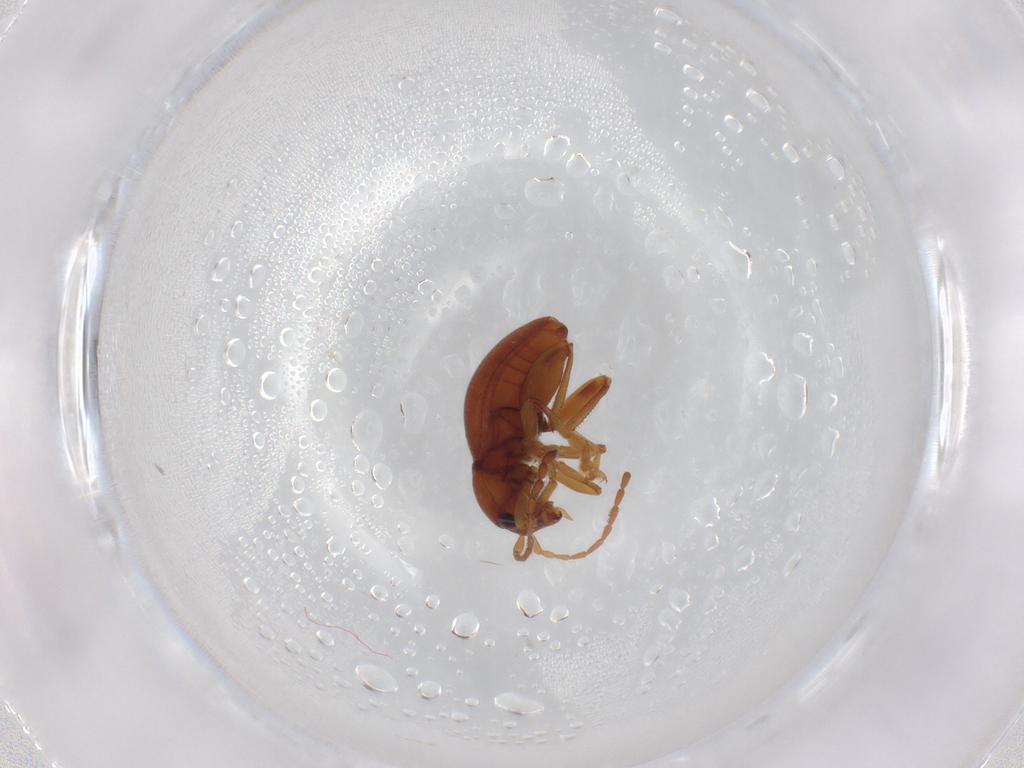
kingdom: Animalia
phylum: Arthropoda
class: Insecta
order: Coleoptera
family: Chrysomelidae
